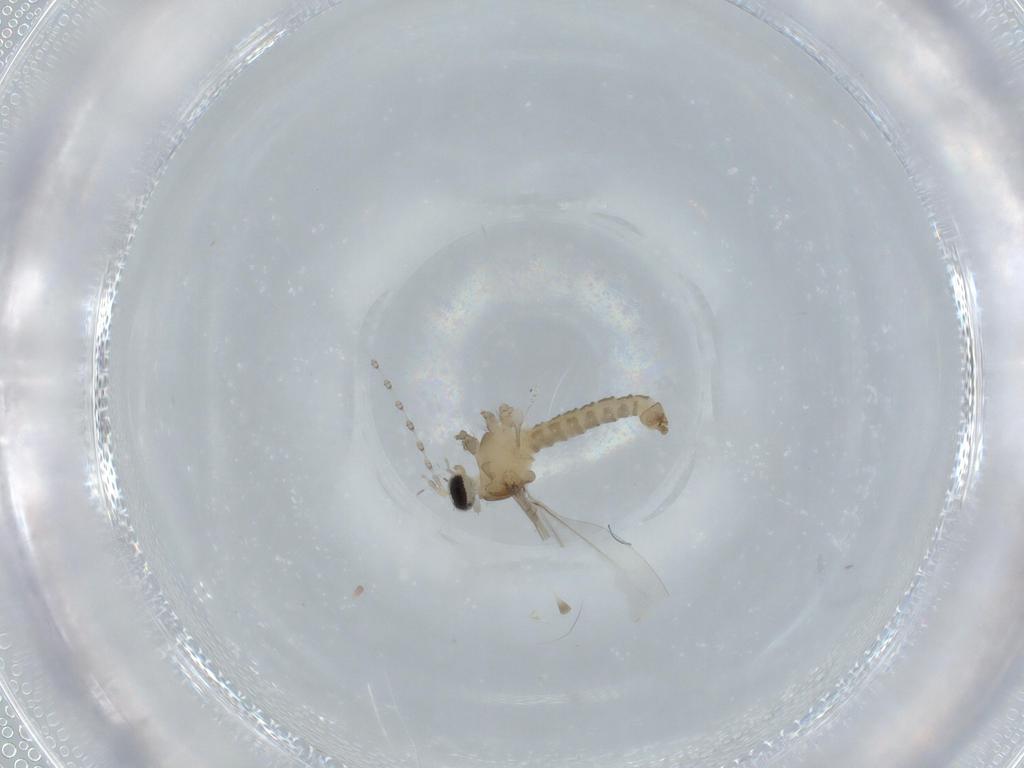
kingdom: Animalia
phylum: Arthropoda
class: Insecta
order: Diptera
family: Cecidomyiidae
